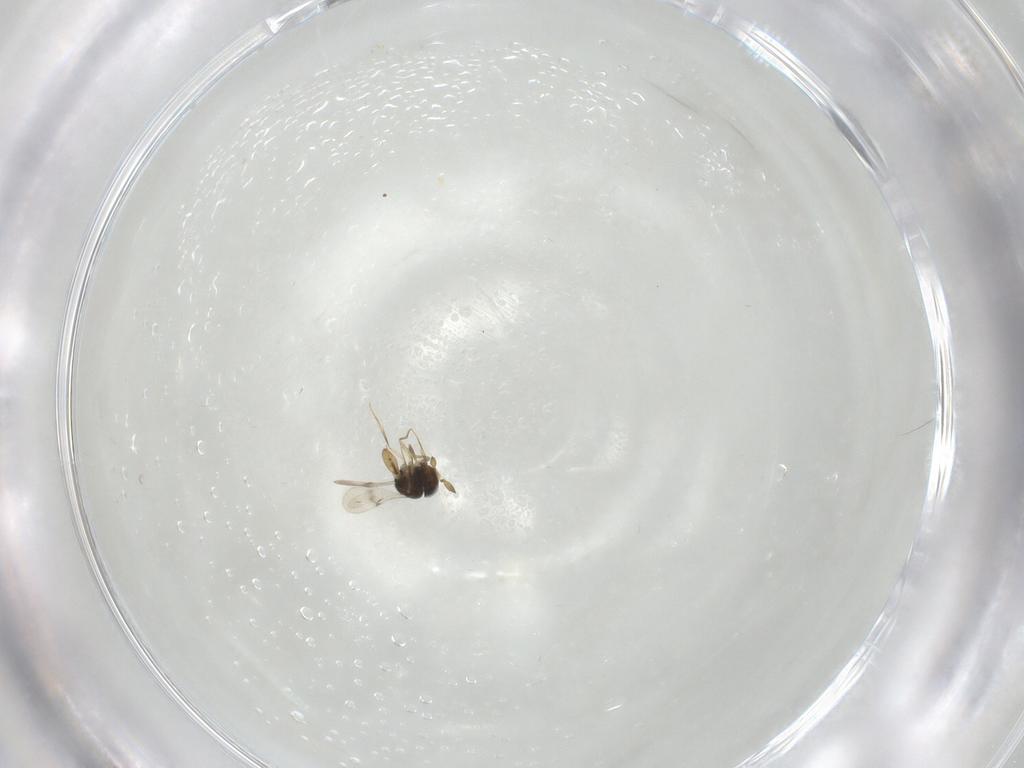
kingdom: Animalia
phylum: Arthropoda
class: Insecta
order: Hymenoptera
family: Scelionidae
